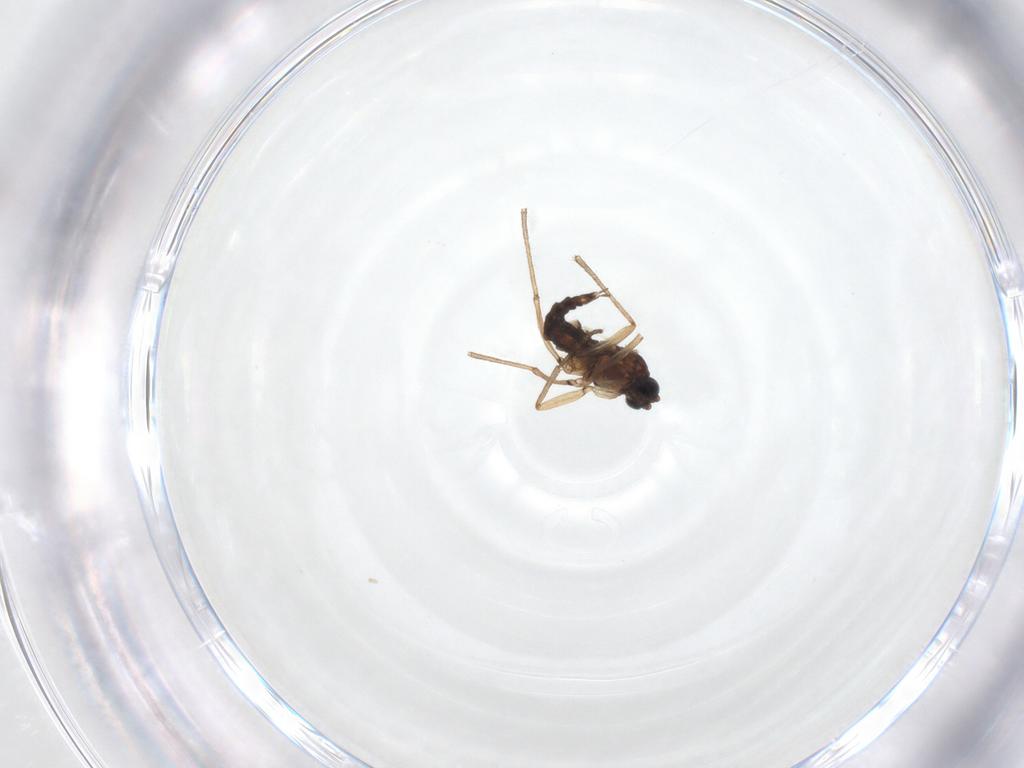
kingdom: Animalia
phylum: Arthropoda
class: Insecta
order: Diptera
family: Sciaridae
